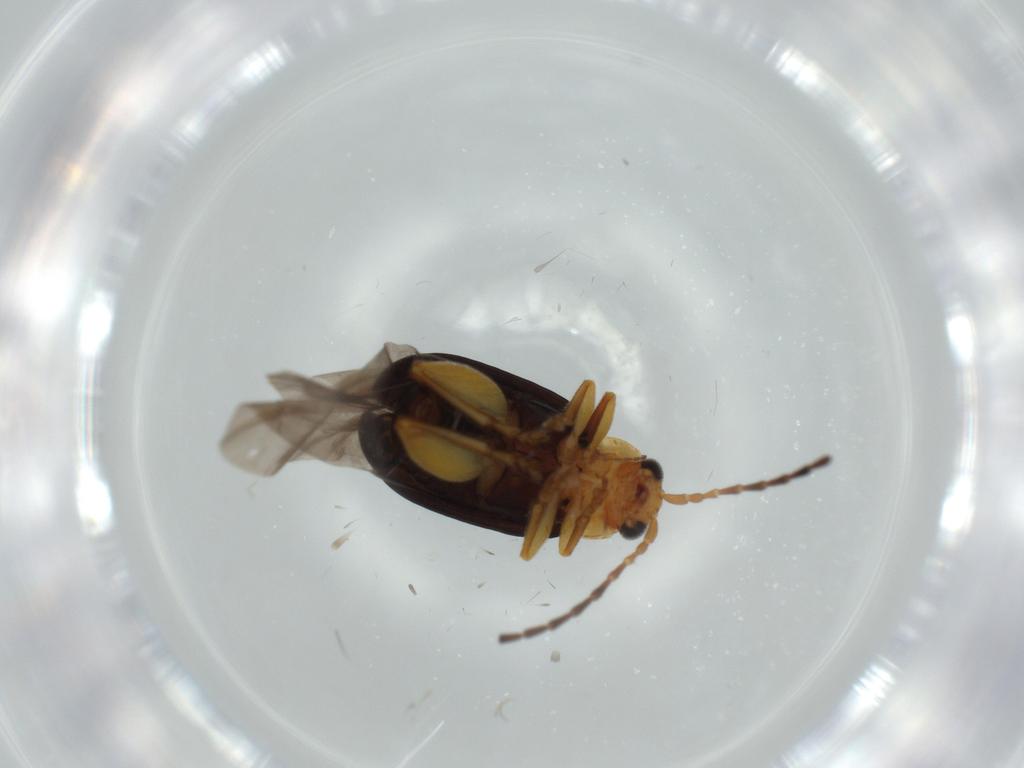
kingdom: Animalia
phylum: Arthropoda
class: Insecta
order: Coleoptera
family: Chrysomelidae
